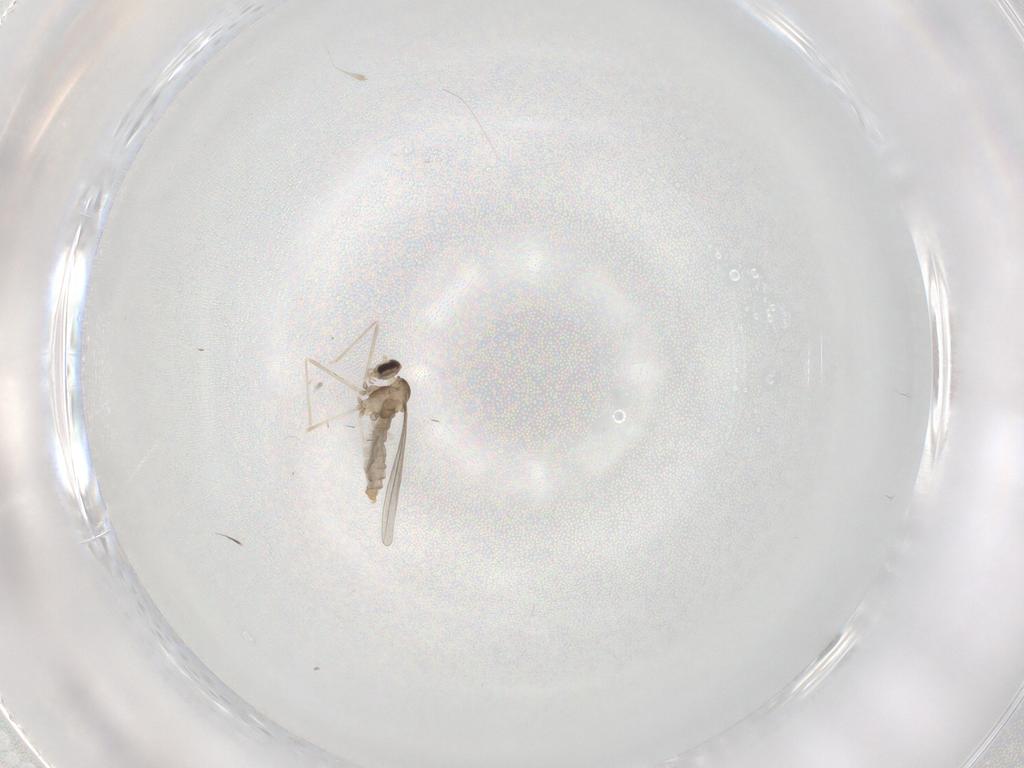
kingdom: Animalia
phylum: Arthropoda
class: Insecta
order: Diptera
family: Cecidomyiidae
